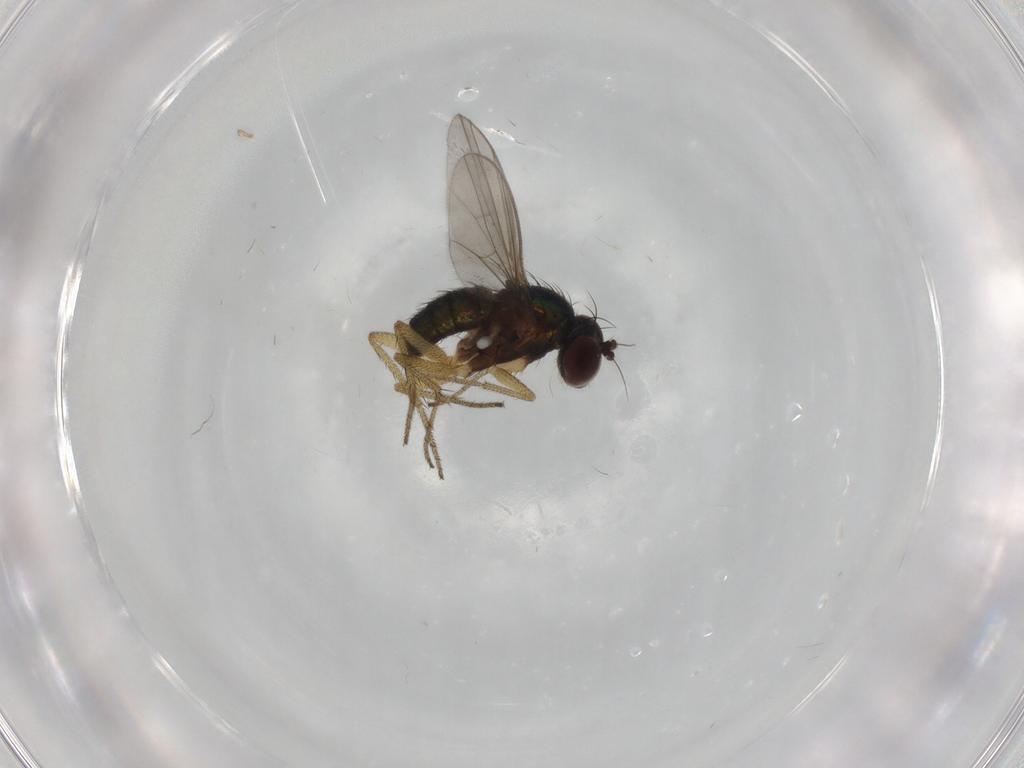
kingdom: Animalia
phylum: Arthropoda
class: Insecta
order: Diptera
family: Dolichopodidae
